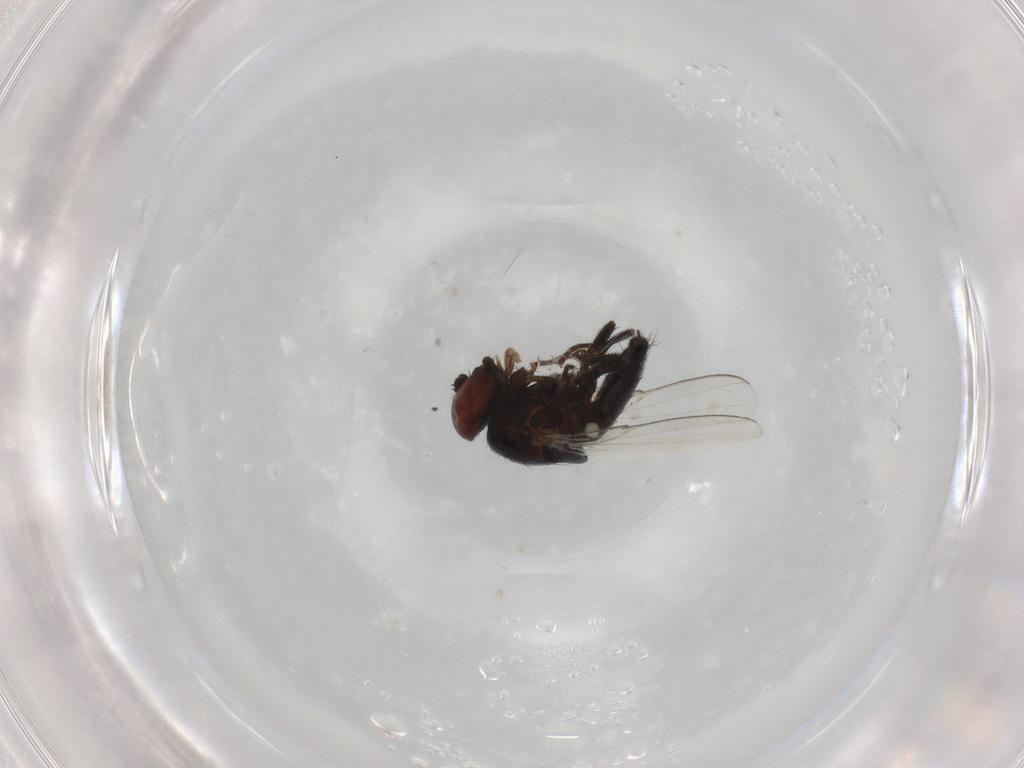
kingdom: Animalia
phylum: Arthropoda
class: Insecta
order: Diptera
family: Milichiidae
